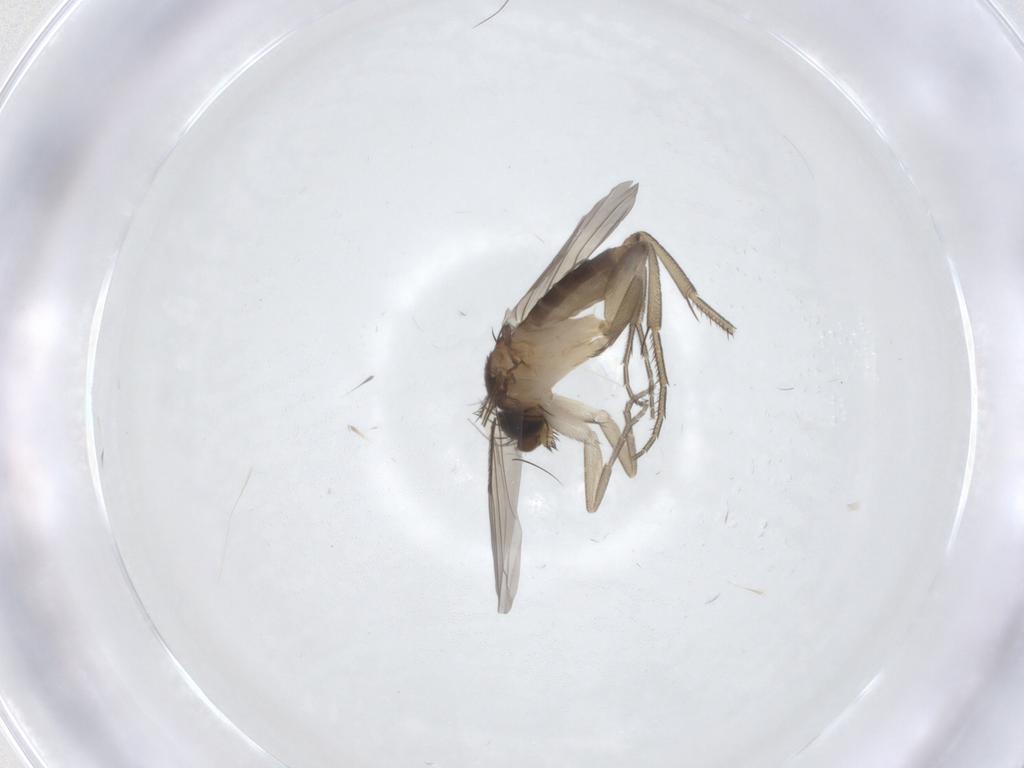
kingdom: Animalia
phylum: Arthropoda
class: Insecta
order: Diptera
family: Phoridae
